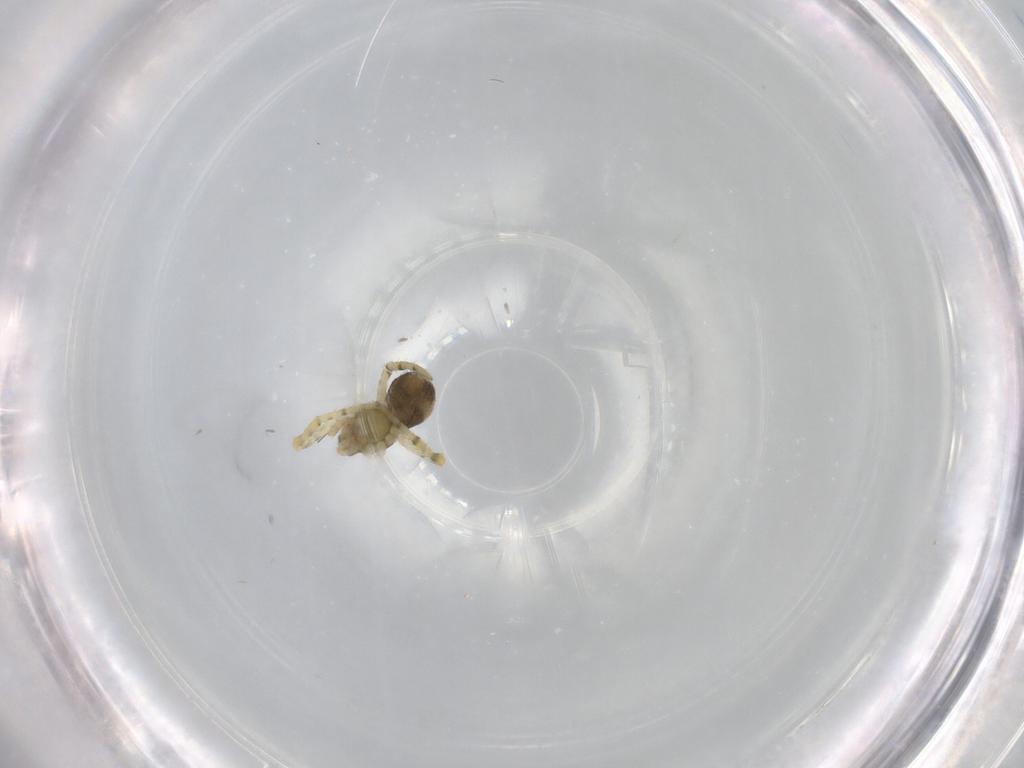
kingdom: Animalia
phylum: Arthropoda
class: Arachnida
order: Araneae
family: Theridiidae
